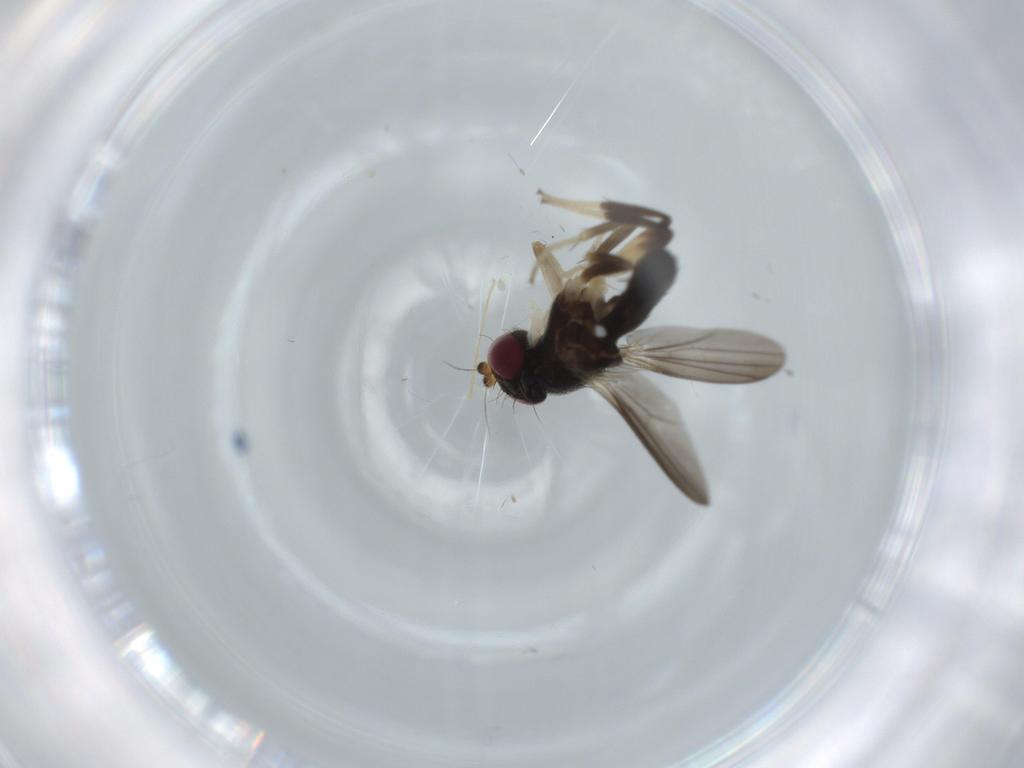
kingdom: Animalia
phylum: Arthropoda
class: Insecta
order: Diptera
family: Clusiidae
